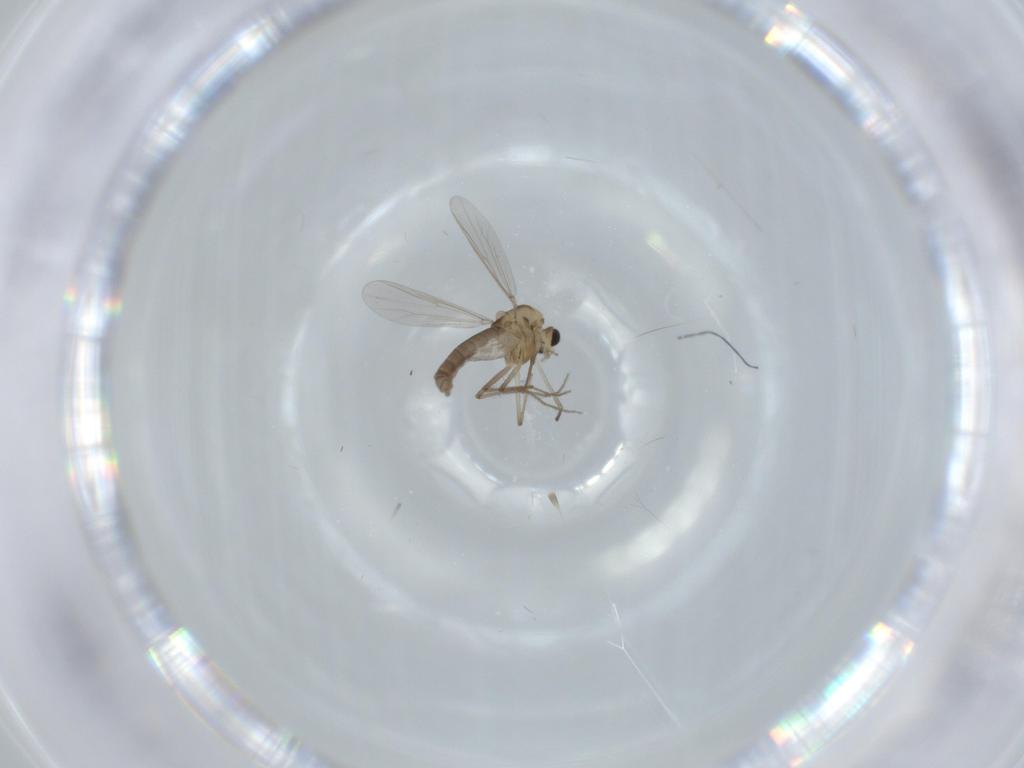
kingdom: Animalia
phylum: Arthropoda
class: Insecta
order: Diptera
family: Chironomidae
